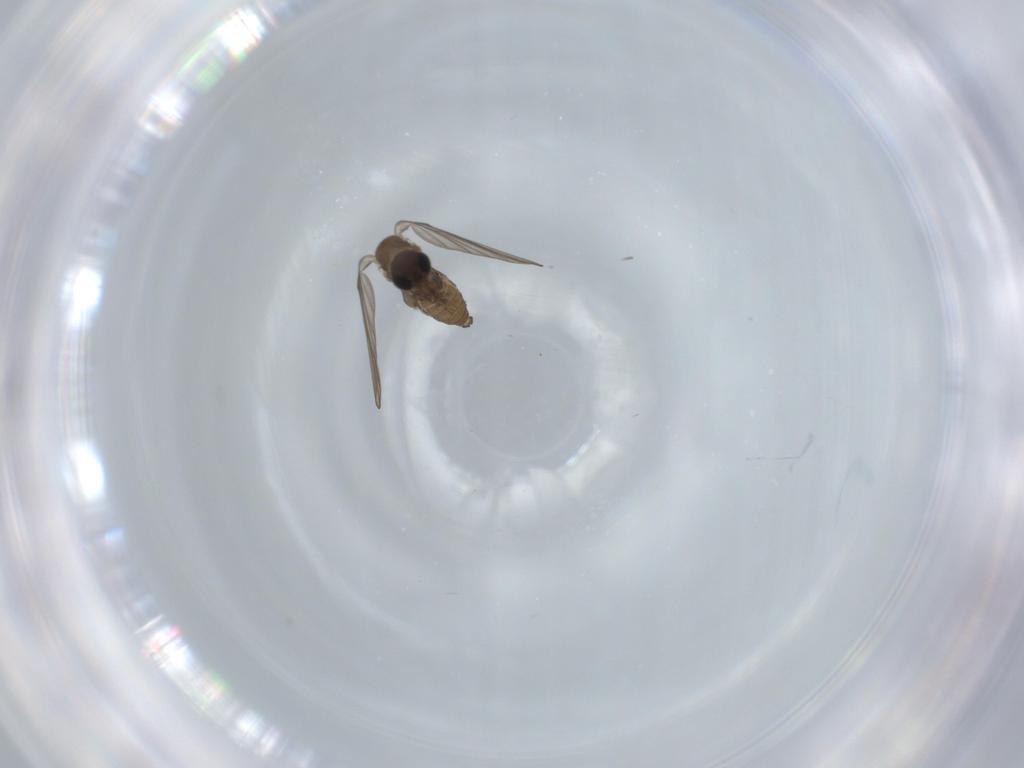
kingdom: Animalia
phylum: Arthropoda
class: Insecta
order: Diptera
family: Psychodidae
